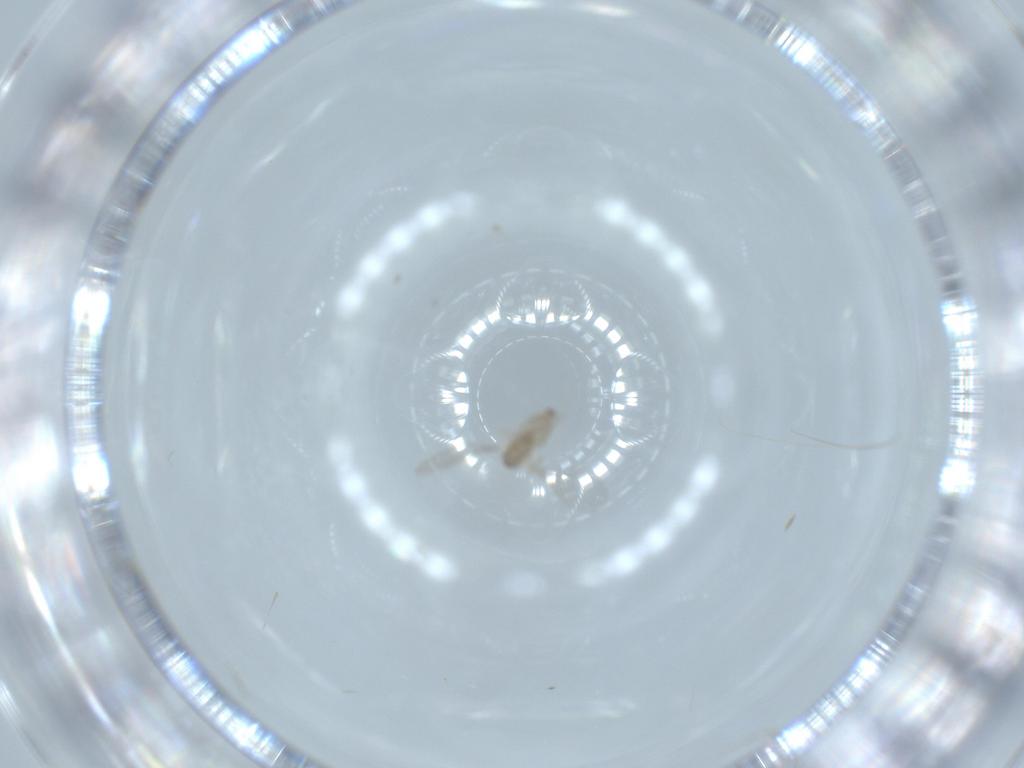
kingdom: Animalia
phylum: Arthropoda
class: Insecta
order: Diptera
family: Cecidomyiidae
